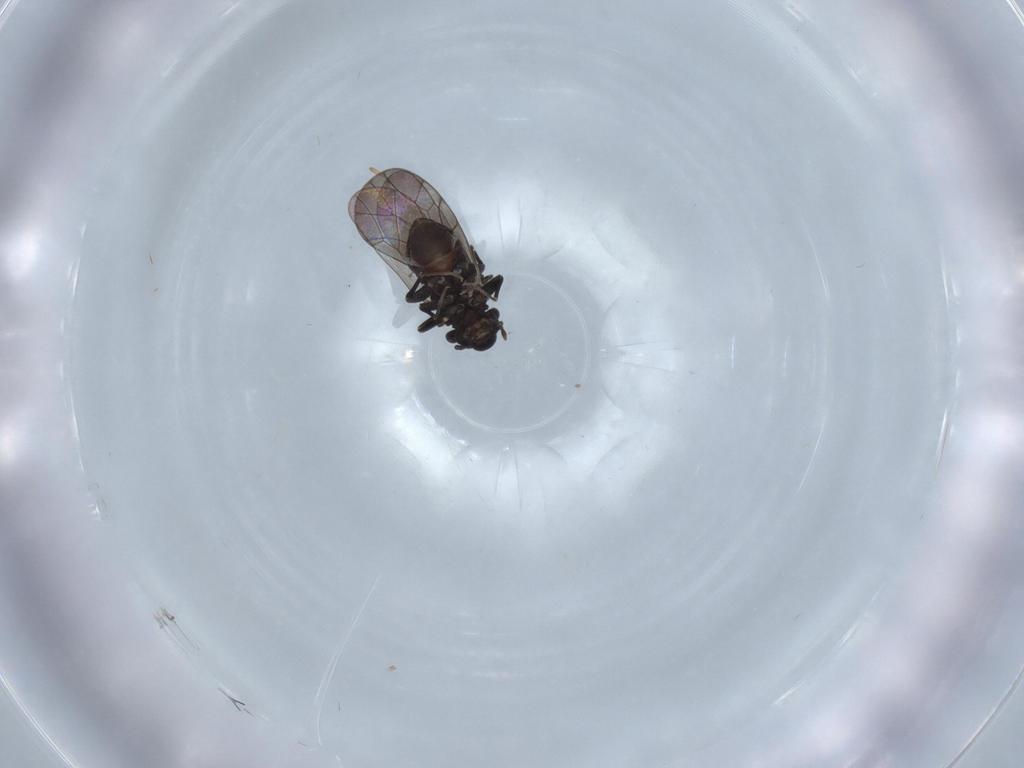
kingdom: Animalia
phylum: Arthropoda
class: Insecta
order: Psocodea
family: Lepidopsocidae
